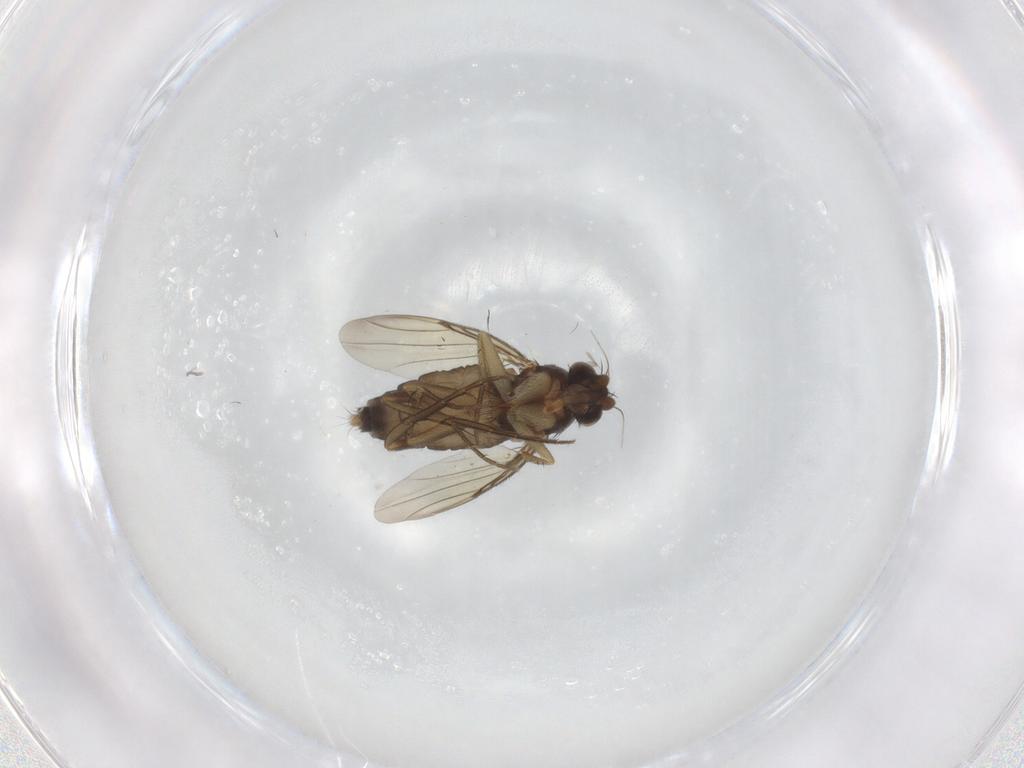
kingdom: Animalia
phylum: Arthropoda
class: Insecta
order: Diptera
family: Phoridae
